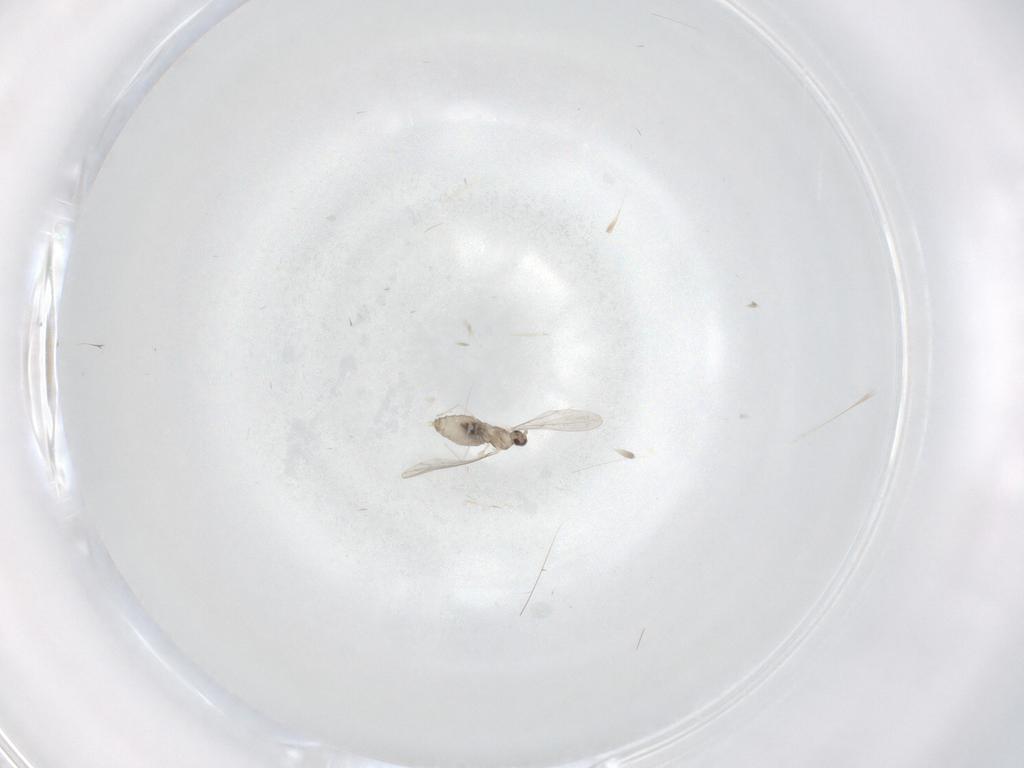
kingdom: Animalia
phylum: Arthropoda
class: Insecta
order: Diptera
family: Cecidomyiidae
